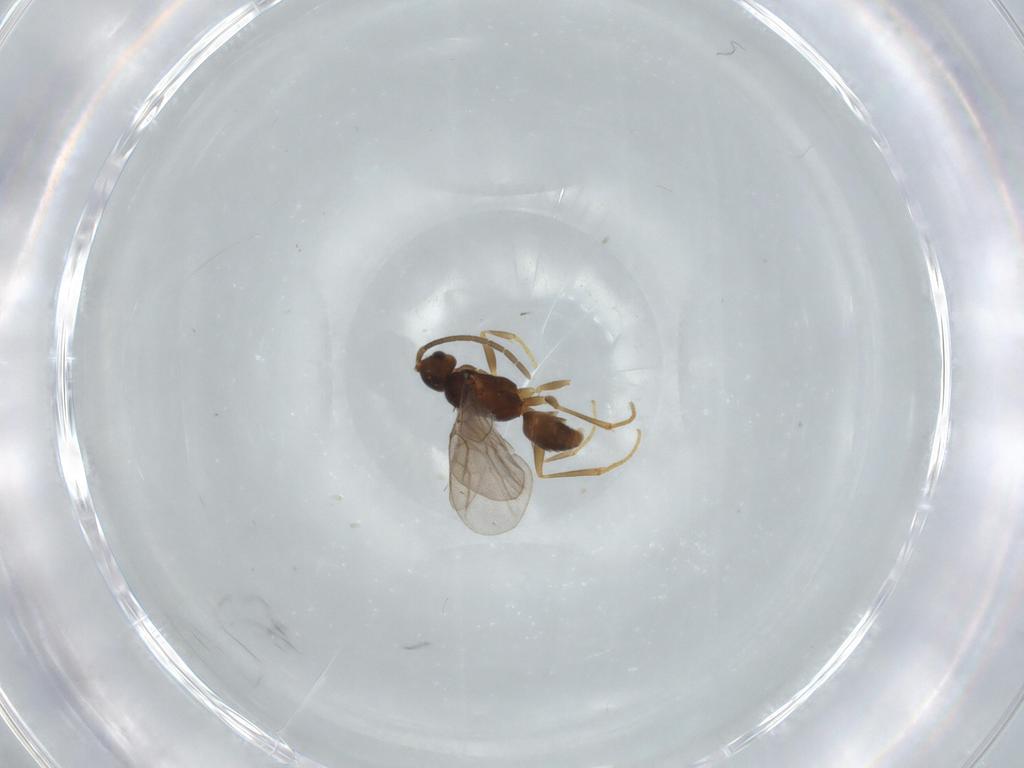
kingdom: Animalia
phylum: Arthropoda
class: Insecta
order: Hymenoptera
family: Embolemidae
